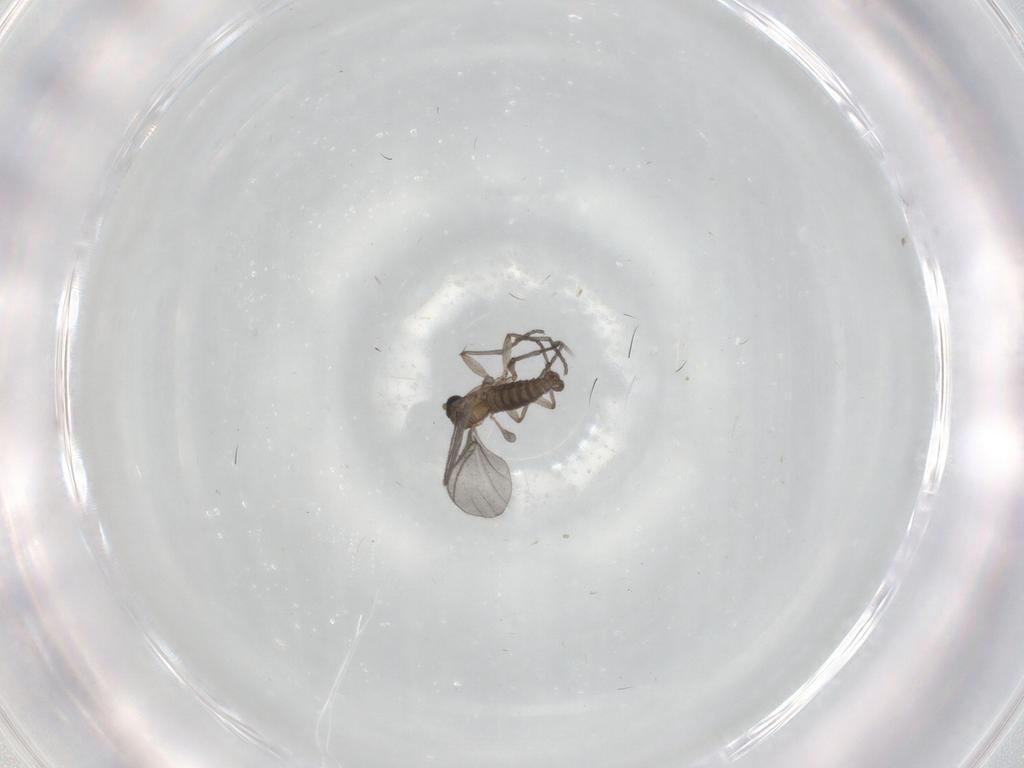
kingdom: Animalia
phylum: Arthropoda
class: Insecta
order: Diptera
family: Sciaridae
